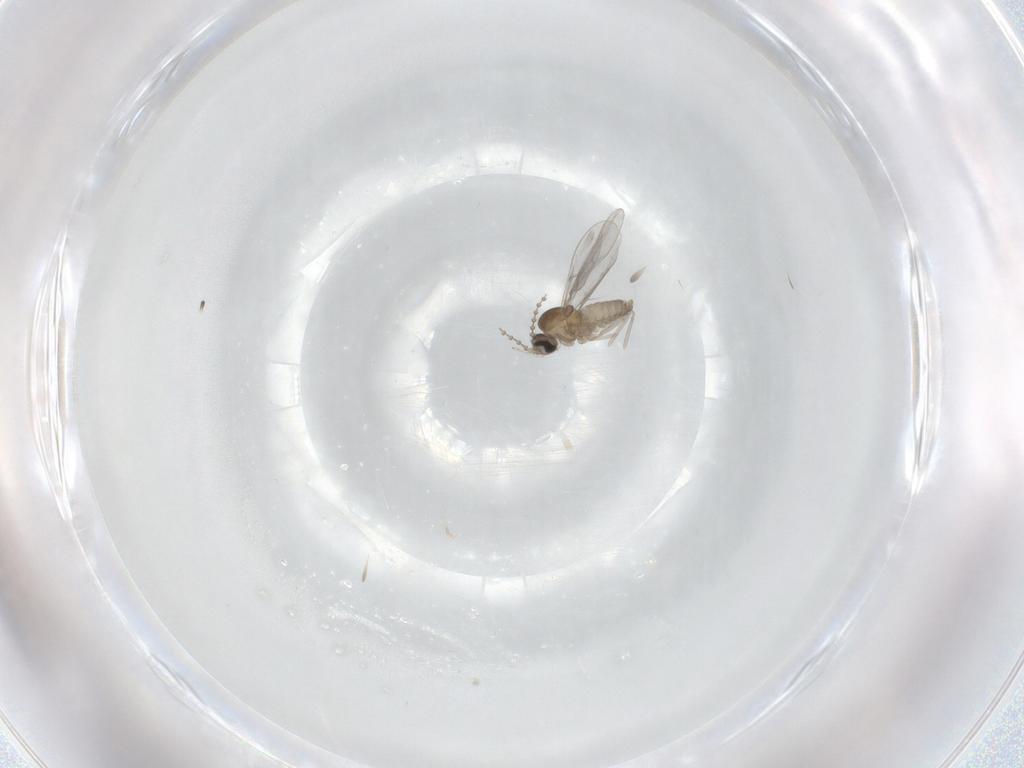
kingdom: Animalia
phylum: Arthropoda
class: Insecta
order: Diptera
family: Cecidomyiidae
